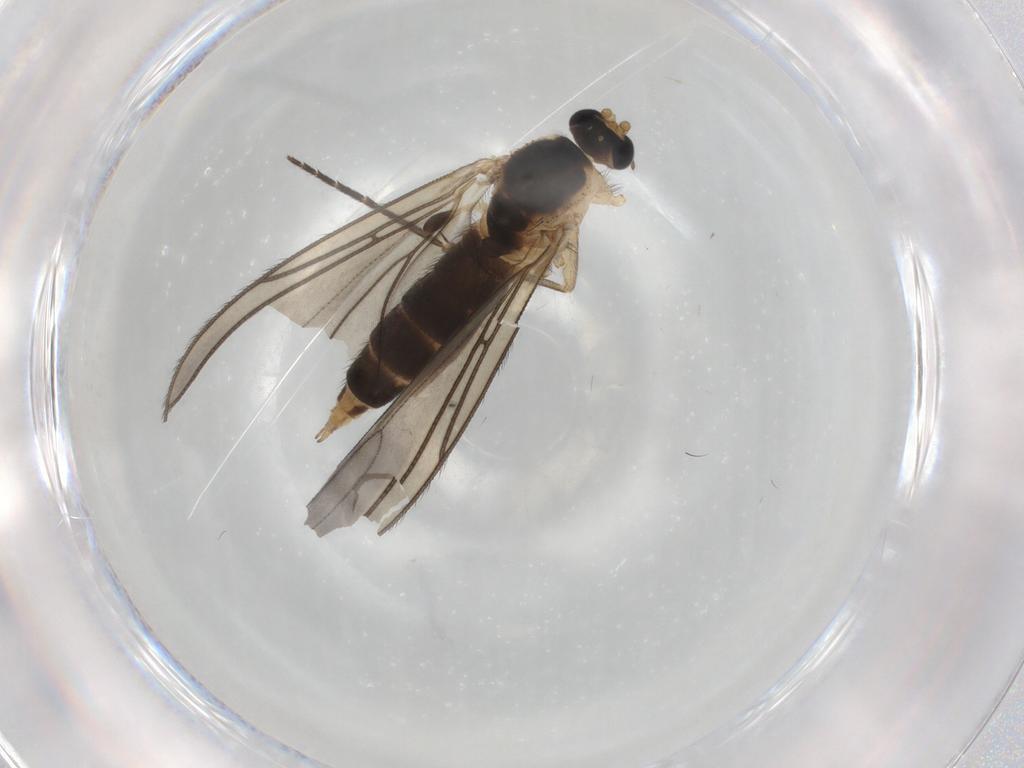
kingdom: Animalia
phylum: Arthropoda
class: Insecta
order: Diptera
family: Sciaridae
